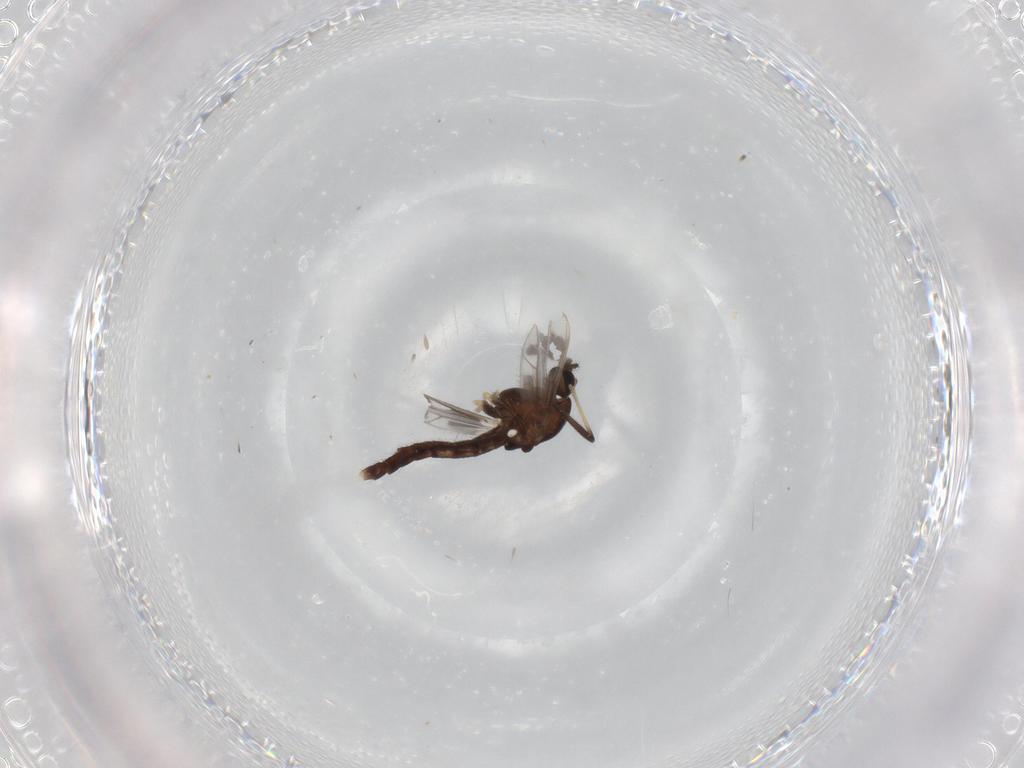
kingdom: Animalia
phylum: Arthropoda
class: Insecta
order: Diptera
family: Chironomidae
